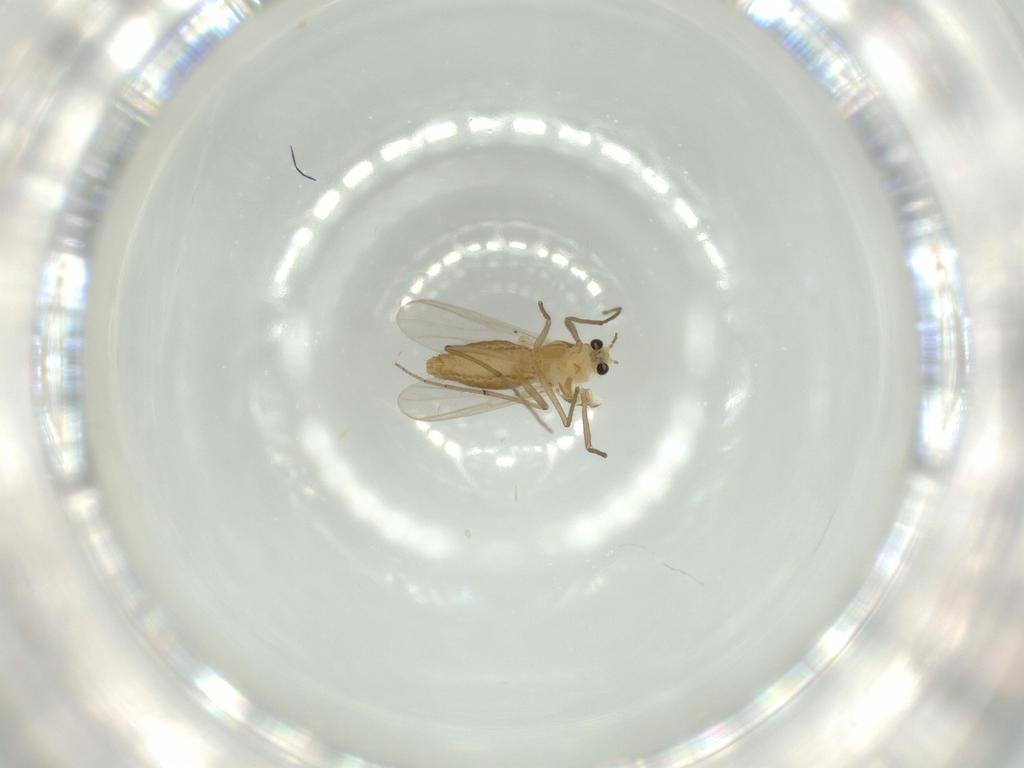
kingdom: Animalia
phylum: Arthropoda
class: Insecta
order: Diptera
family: Chironomidae
